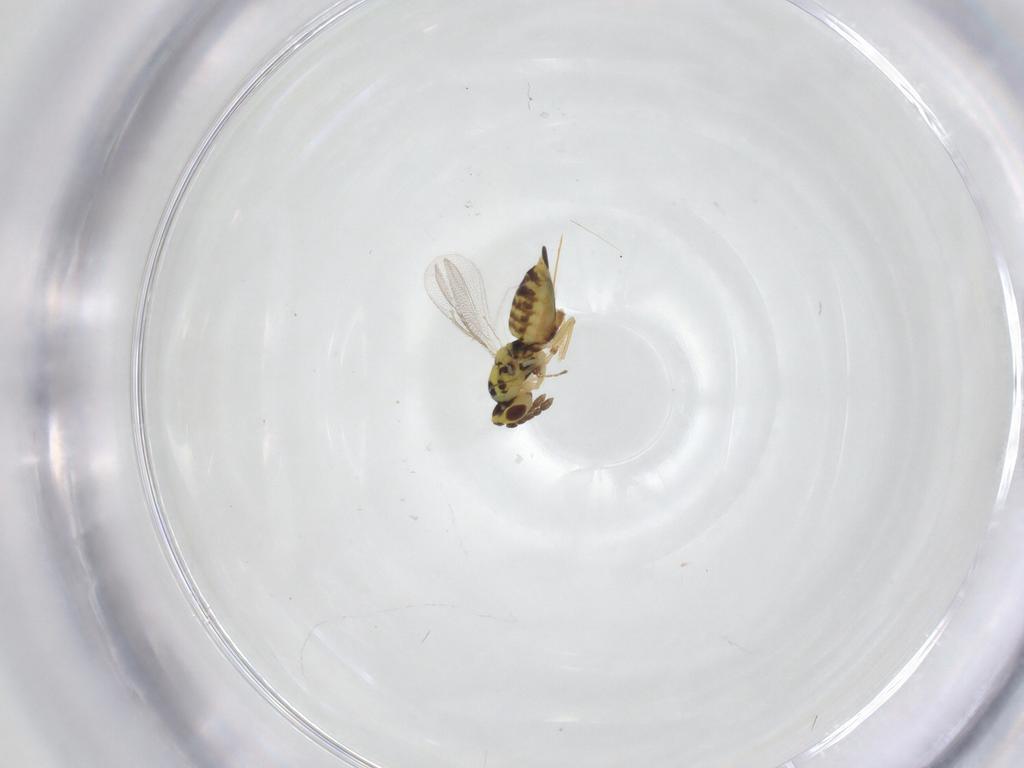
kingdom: Animalia
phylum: Arthropoda
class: Insecta
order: Hymenoptera
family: Eulophidae
